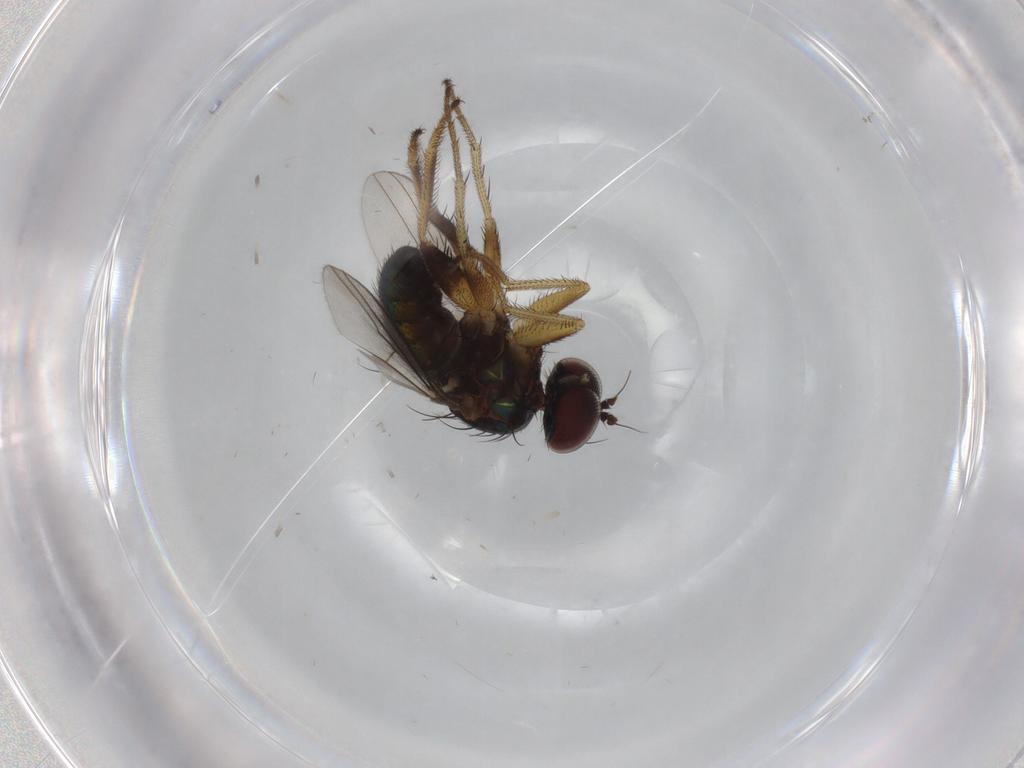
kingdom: Animalia
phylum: Arthropoda
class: Insecta
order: Diptera
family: Dolichopodidae
